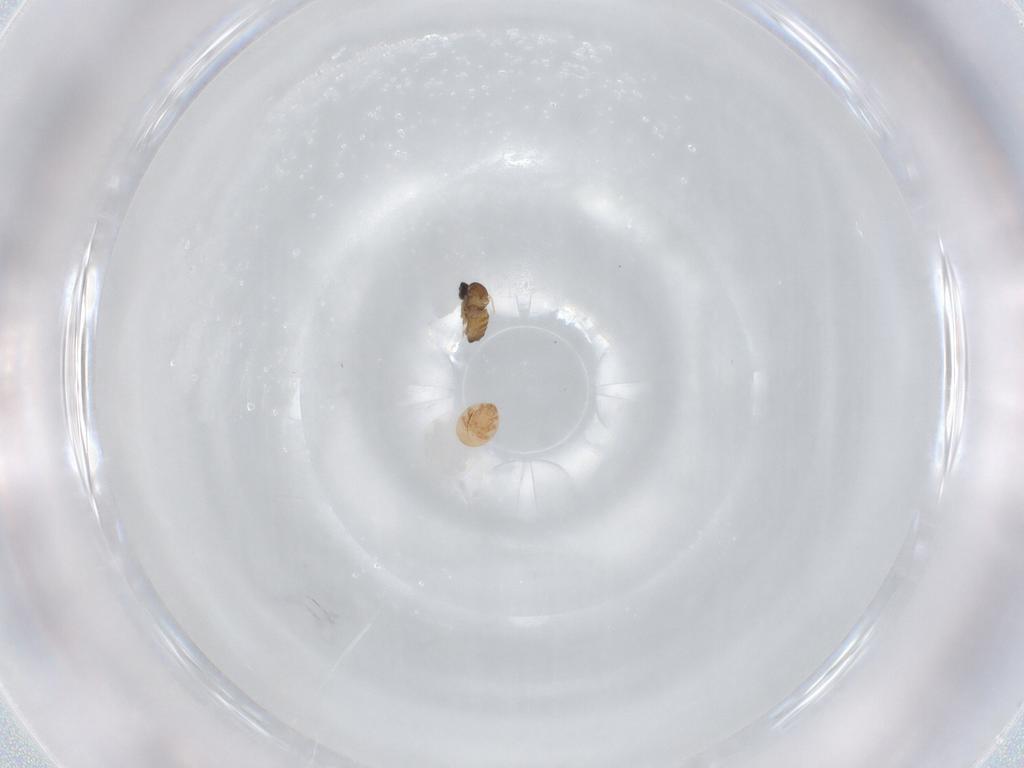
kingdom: Animalia
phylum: Arthropoda
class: Insecta
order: Diptera
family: Cecidomyiidae
